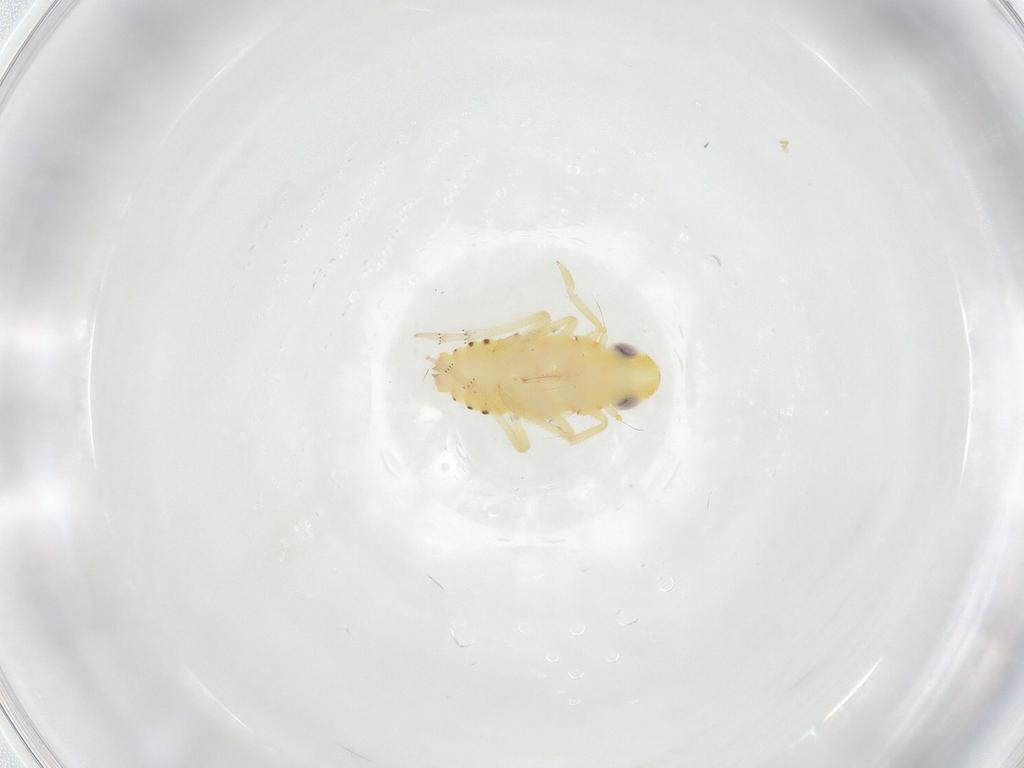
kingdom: Animalia
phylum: Arthropoda
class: Insecta
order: Hemiptera
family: Tropiduchidae
